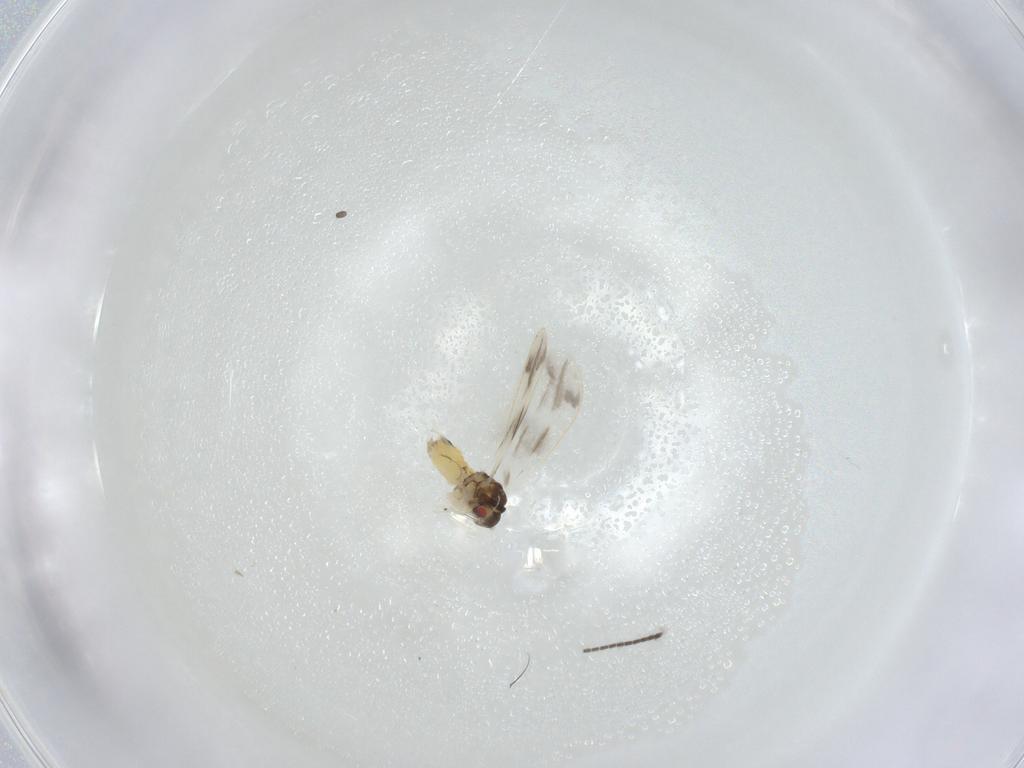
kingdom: Animalia
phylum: Arthropoda
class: Insecta
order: Hemiptera
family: Aleyrodidae
